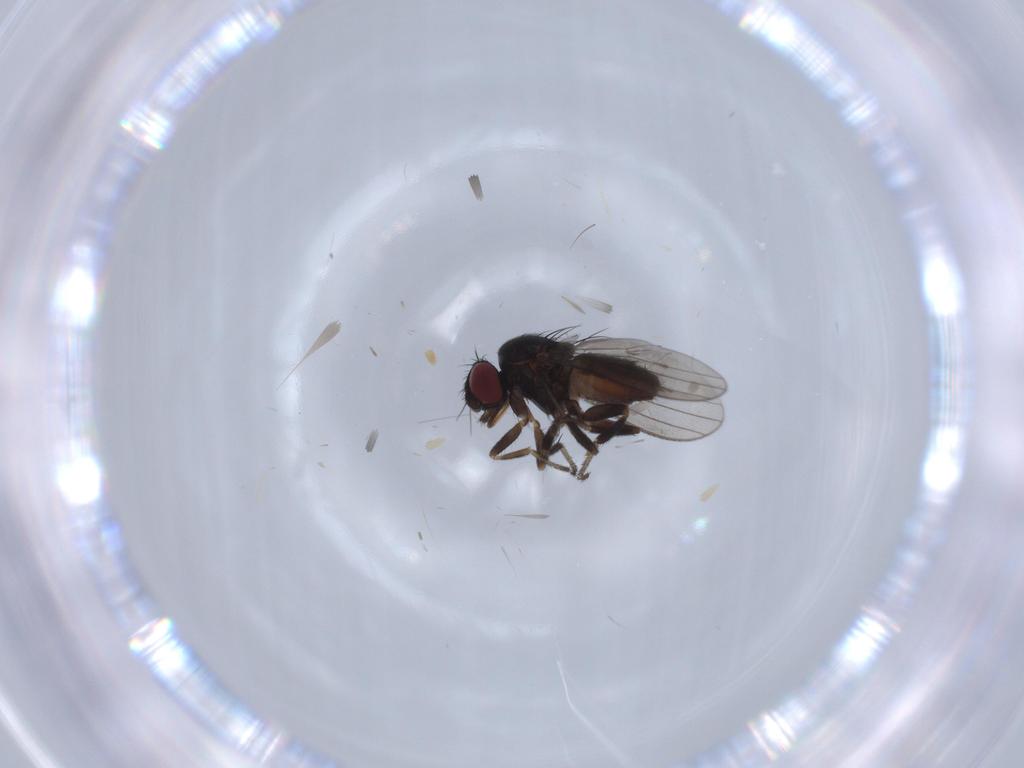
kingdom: Animalia
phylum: Arthropoda
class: Insecta
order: Diptera
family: Milichiidae
